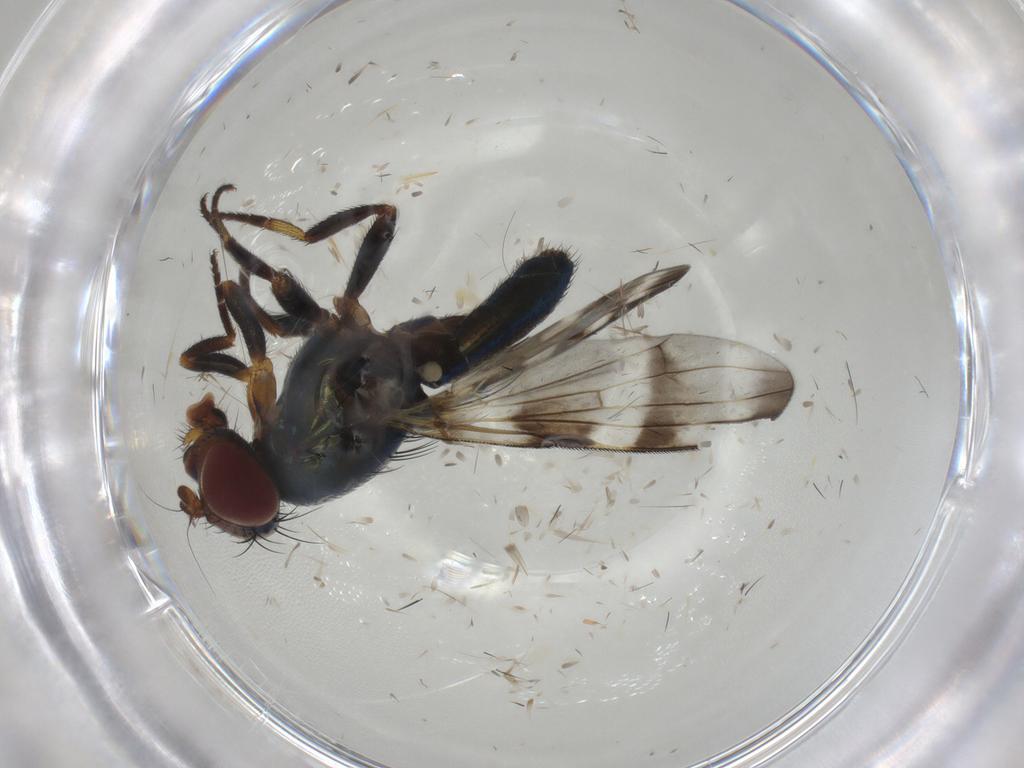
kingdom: Animalia
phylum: Arthropoda
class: Insecta
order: Diptera
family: Ulidiidae
